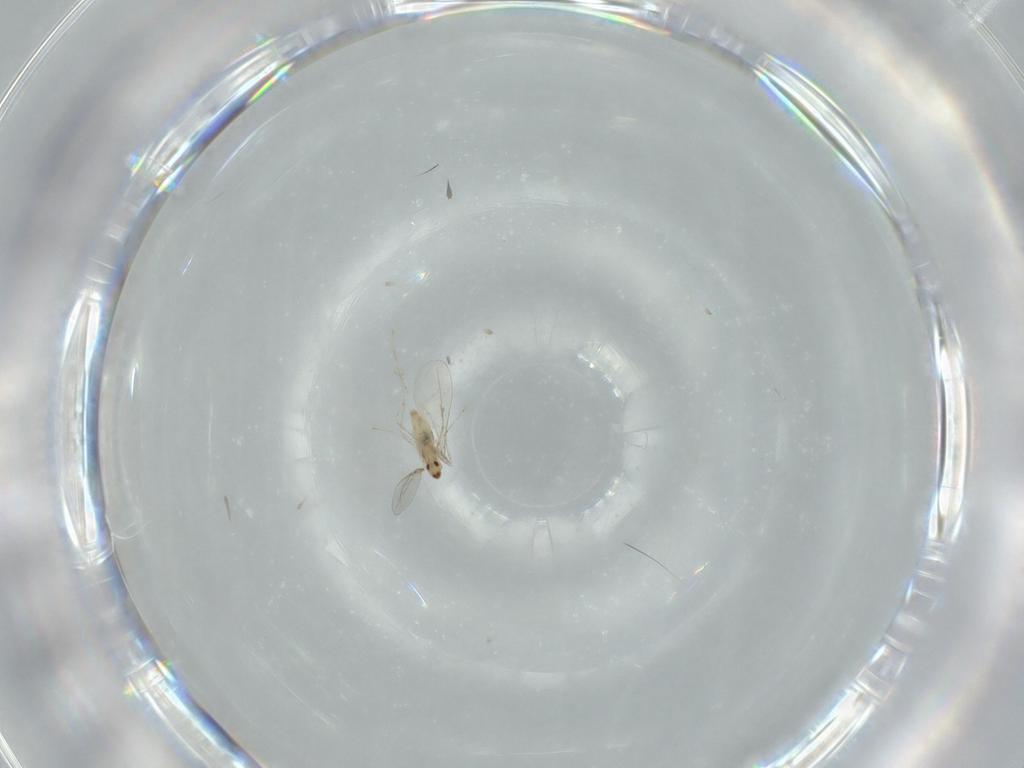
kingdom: Animalia
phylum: Arthropoda
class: Insecta
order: Diptera
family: Cecidomyiidae
